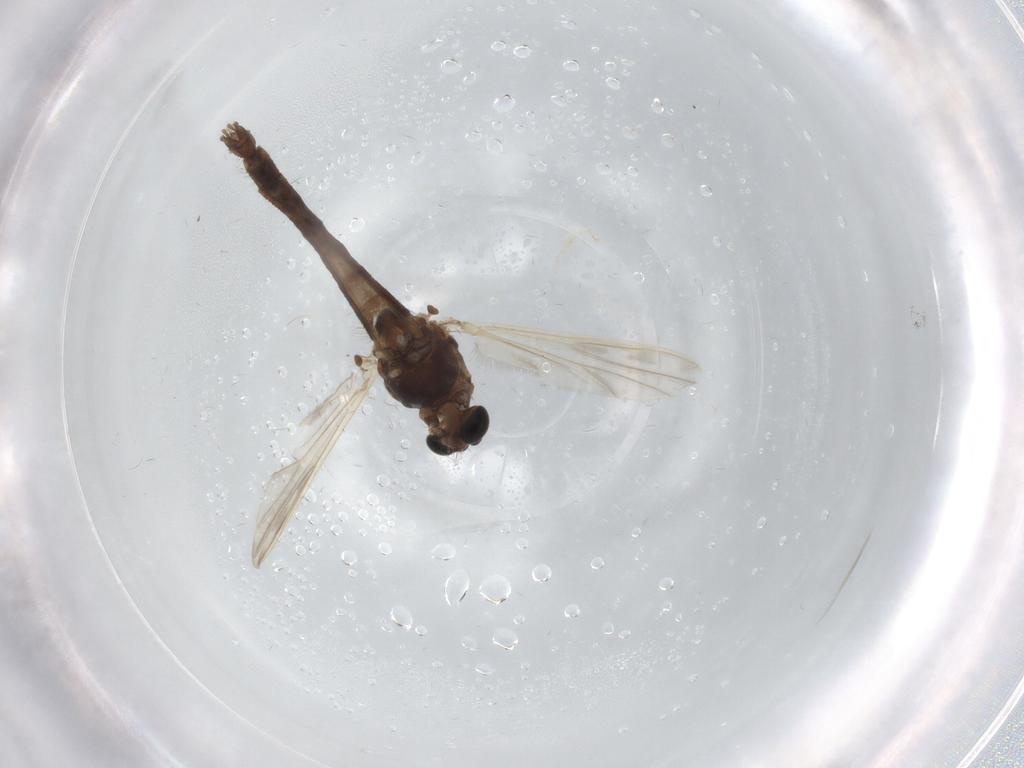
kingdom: Animalia
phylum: Arthropoda
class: Insecta
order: Diptera
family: Chironomidae
